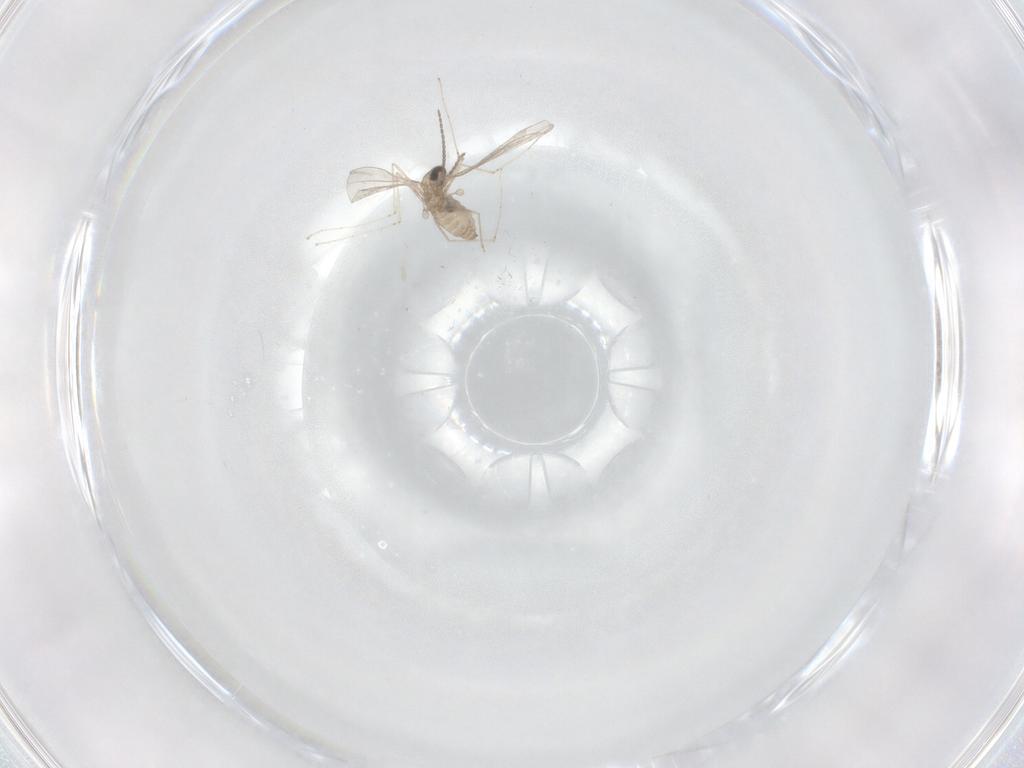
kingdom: Animalia
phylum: Arthropoda
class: Insecta
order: Diptera
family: Cecidomyiidae
